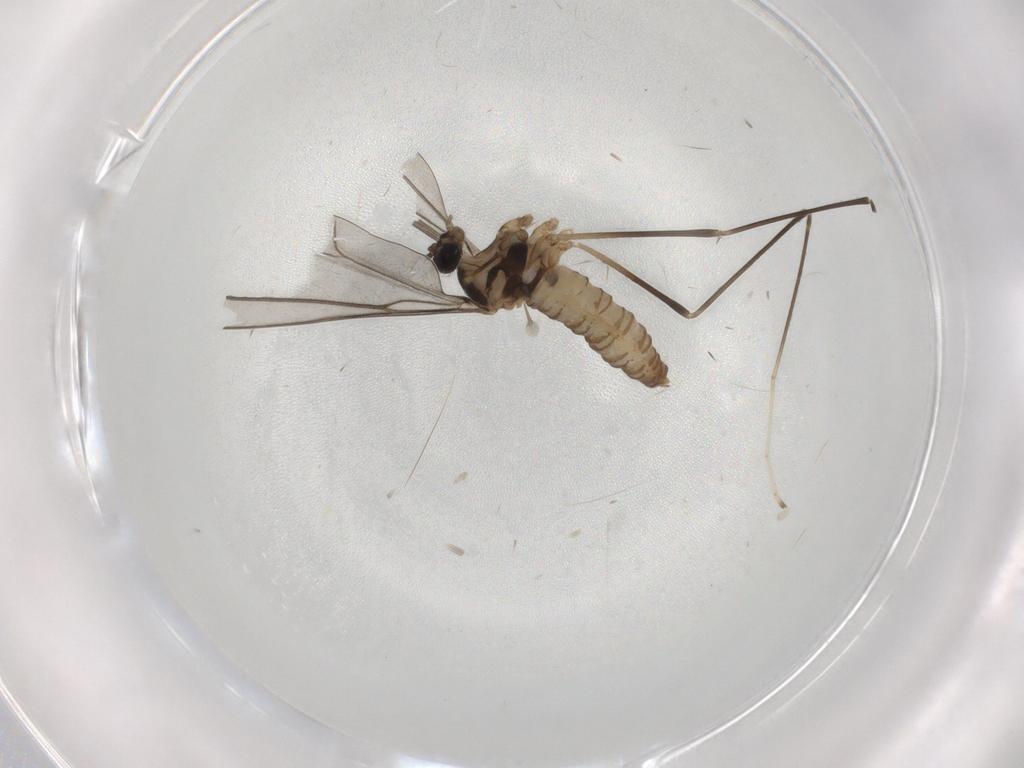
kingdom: Animalia
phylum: Arthropoda
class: Insecta
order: Diptera
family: Cecidomyiidae
